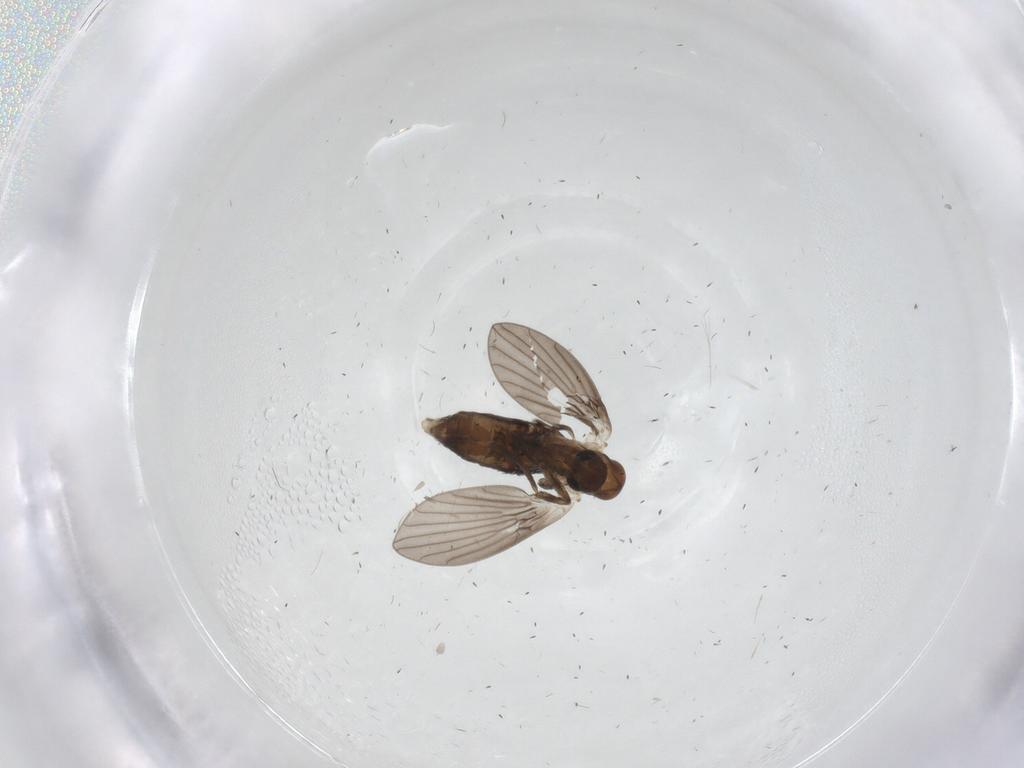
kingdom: Animalia
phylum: Arthropoda
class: Insecta
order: Diptera
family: Psychodidae
